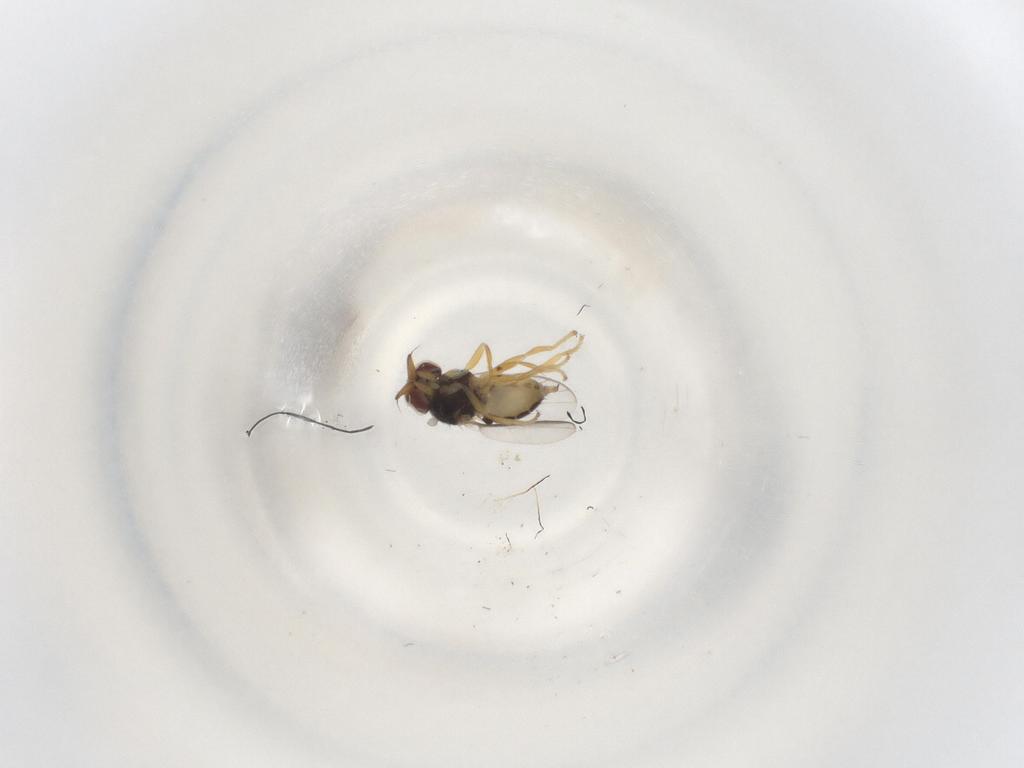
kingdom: Animalia
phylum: Arthropoda
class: Insecta
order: Diptera
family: Chloropidae
